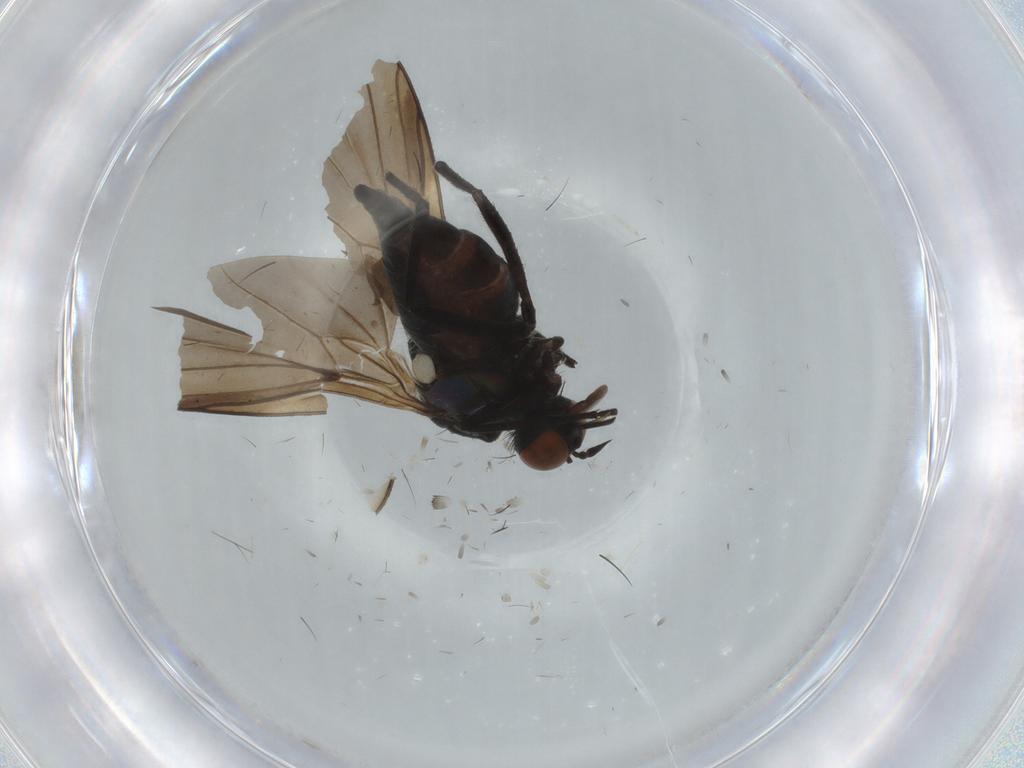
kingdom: Animalia
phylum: Arthropoda
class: Insecta
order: Diptera
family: Empididae
